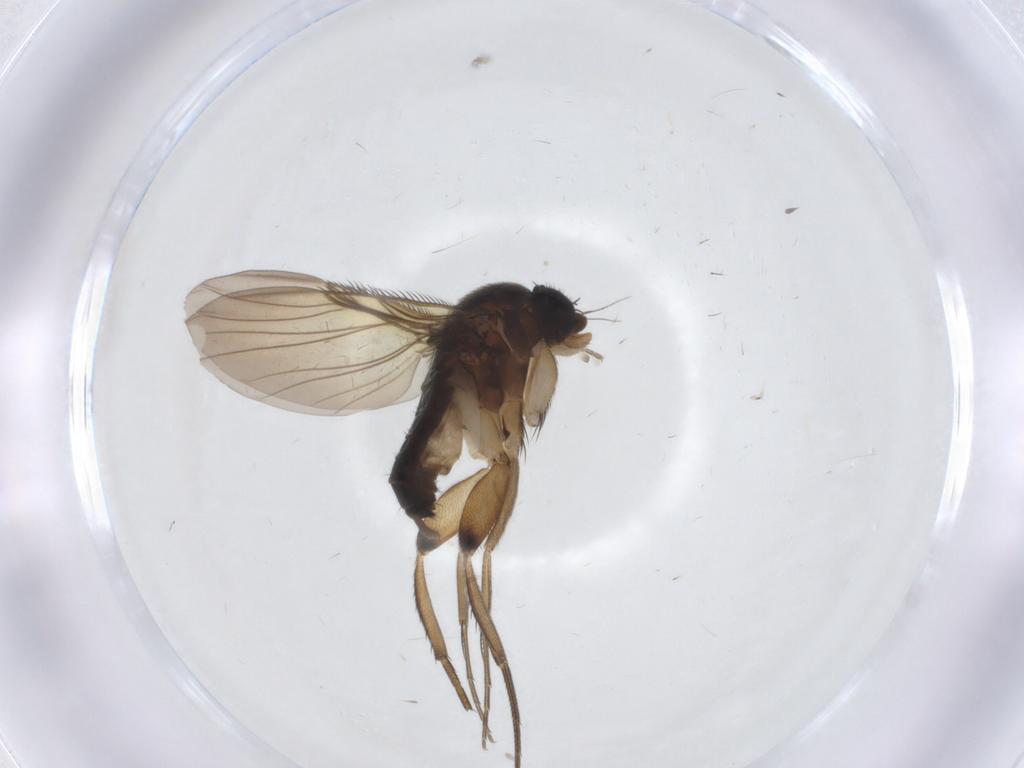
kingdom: Animalia
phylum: Arthropoda
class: Insecta
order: Diptera
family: Phoridae
